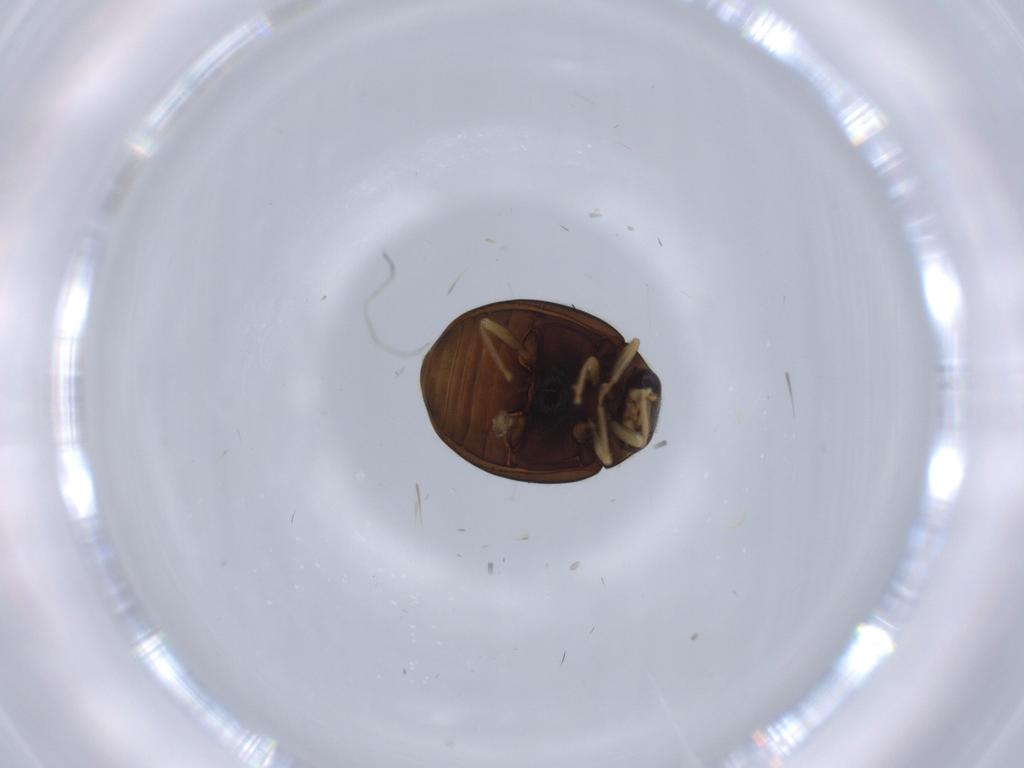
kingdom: Animalia
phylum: Arthropoda
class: Insecta
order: Coleoptera
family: Coccinellidae
